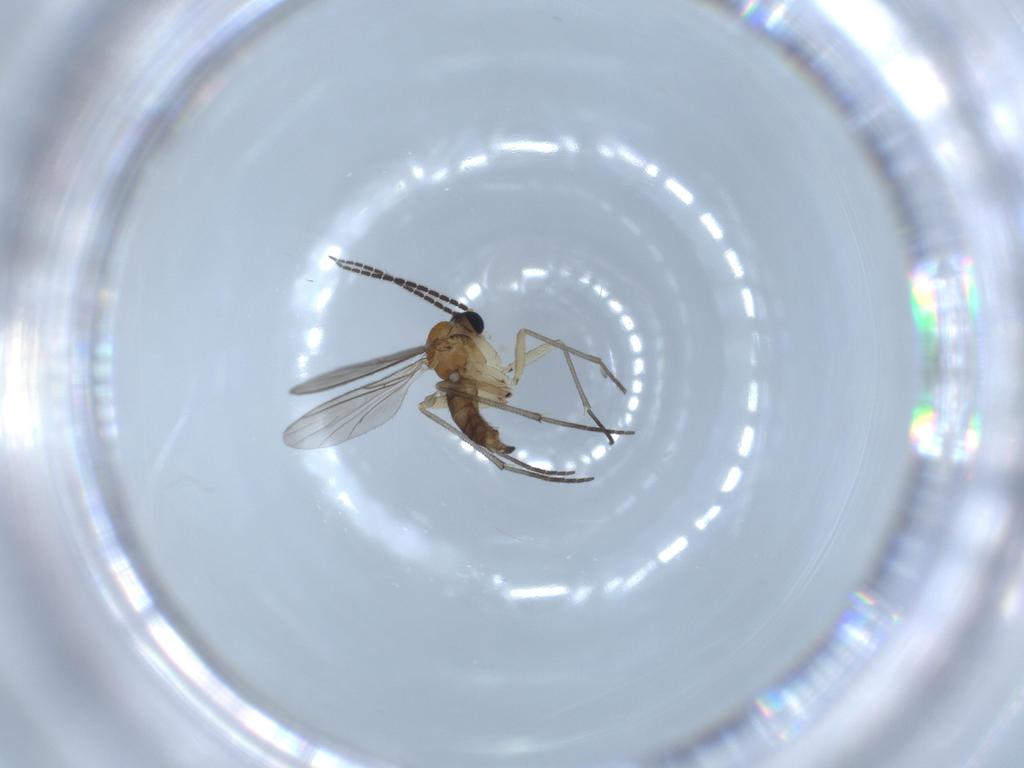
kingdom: Animalia
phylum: Arthropoda
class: Insecta
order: Diptera
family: Sciaridae
